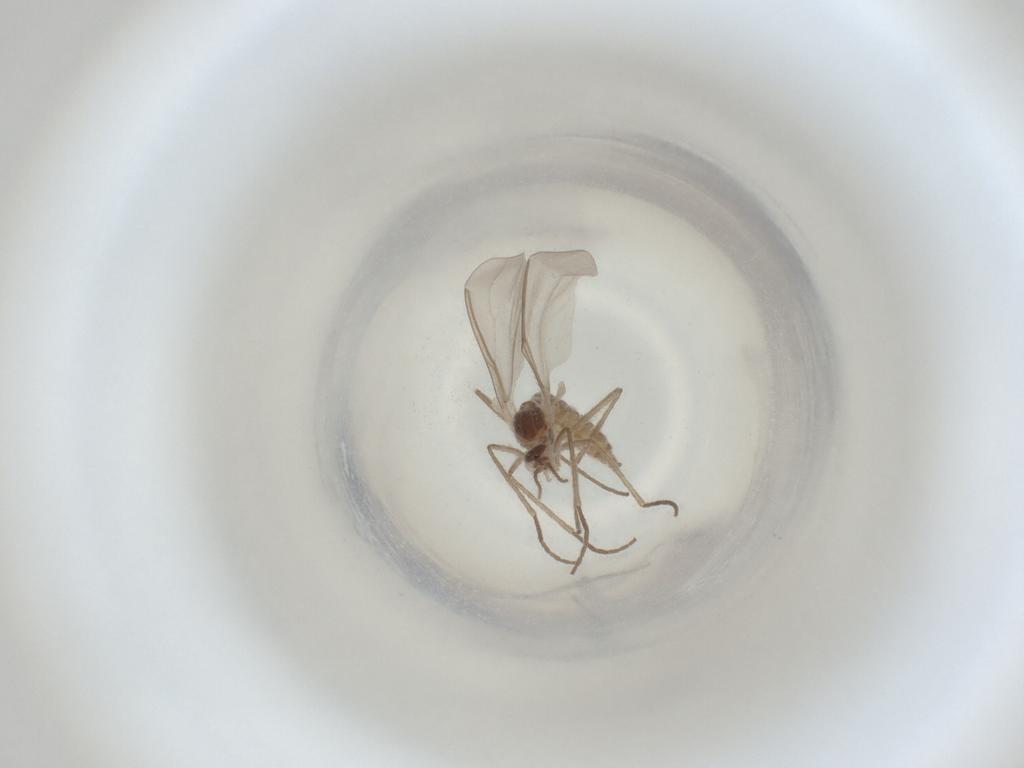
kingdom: Animalia
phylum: Arthropoda
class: Insecta
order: Diptera
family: Cecidomyiidae
